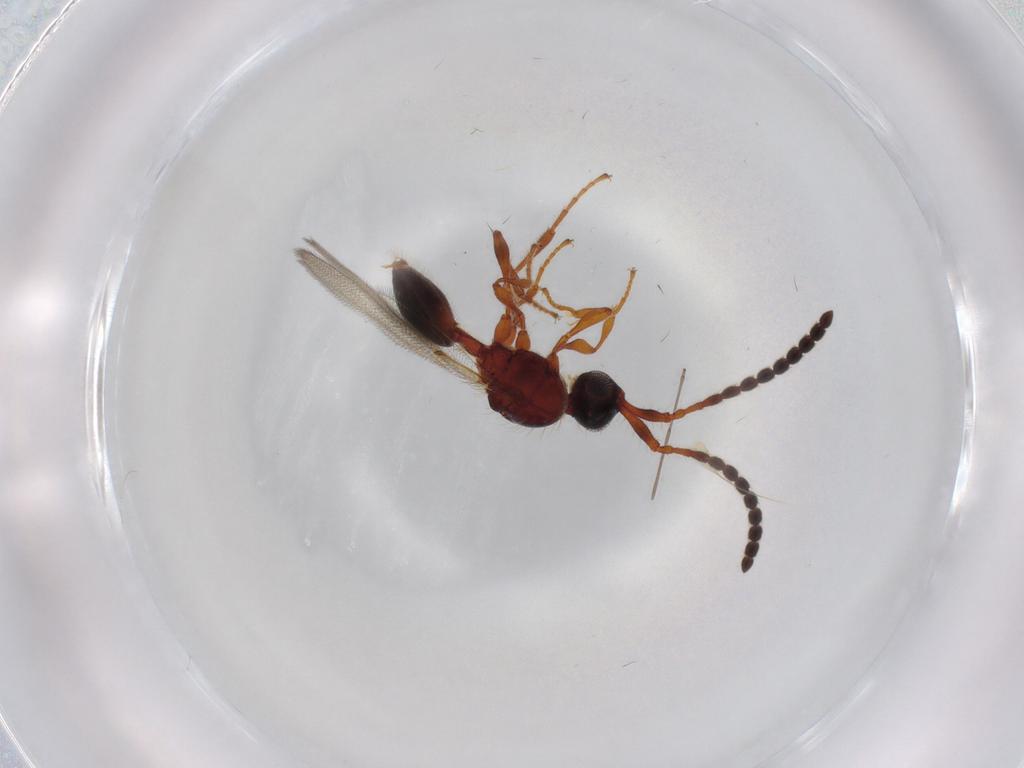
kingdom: Animalia
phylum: Arthropoda
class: Insecta
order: Hymenoptera
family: Diapriidae
